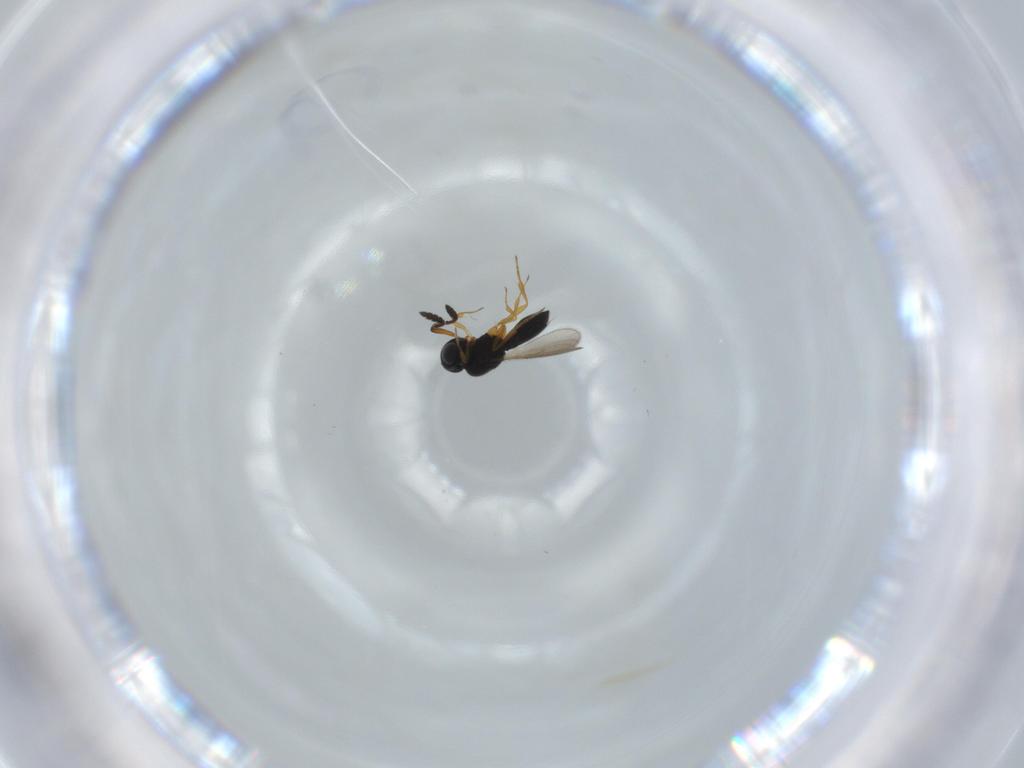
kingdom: Animalia
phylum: Arthropoda
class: Insecta
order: Hymenoptera
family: Scelionidae
